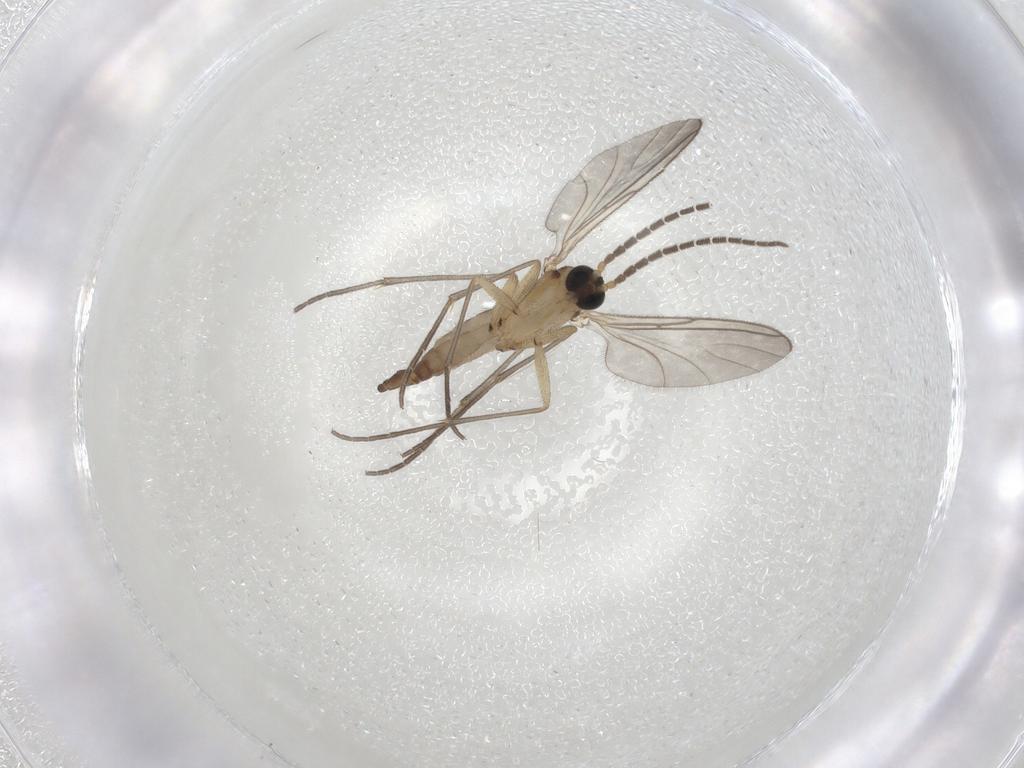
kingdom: Animalia
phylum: Arthropoda
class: Insecta
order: Diptera
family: Sciaridae
